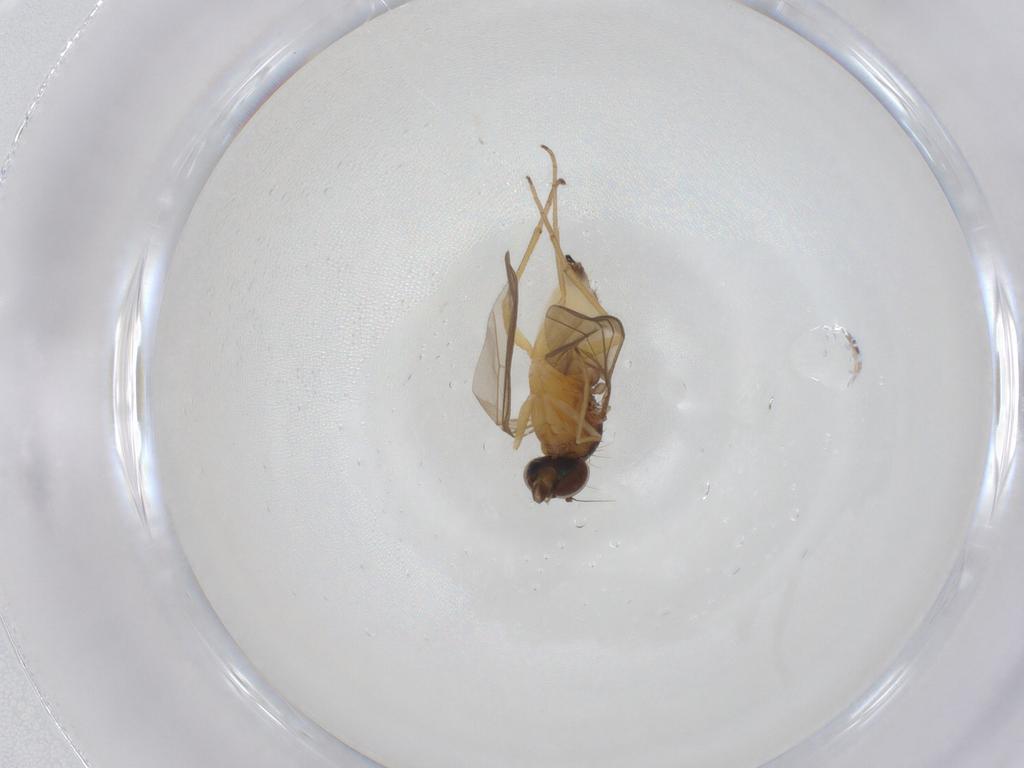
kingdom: Animalia
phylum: Arthropoda
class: Insecta
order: Diptera
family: Dolichopodidae
